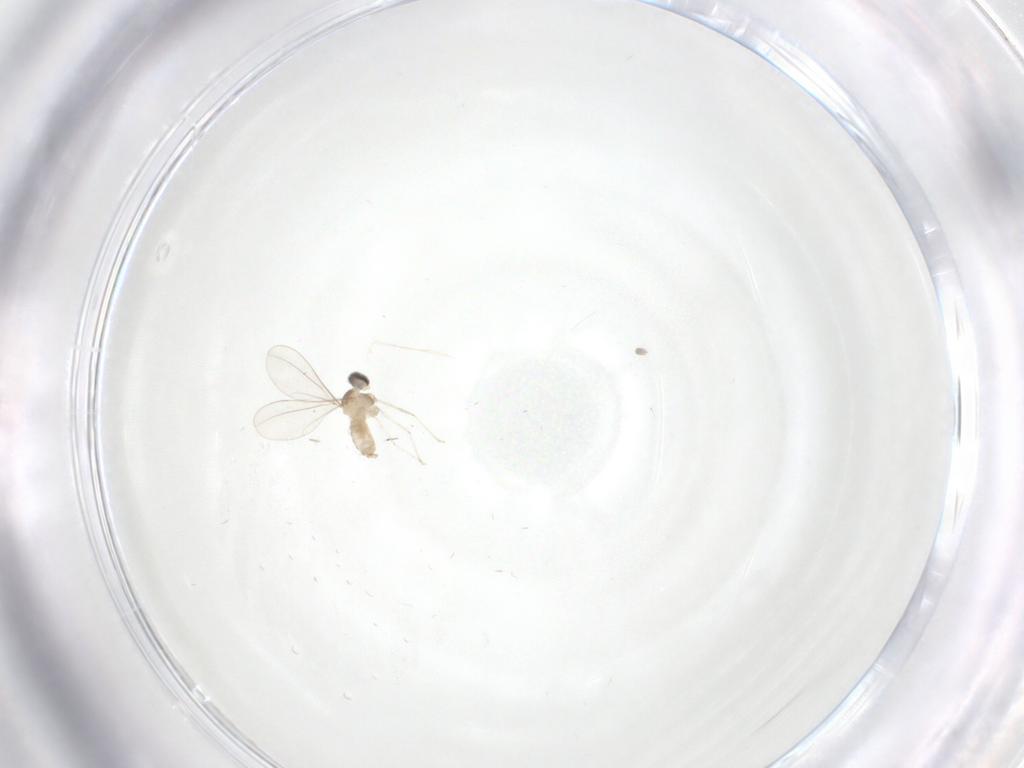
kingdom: Animalia
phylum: Arthropoda
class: Insecta
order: Diptera
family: Cecidomyiidae
